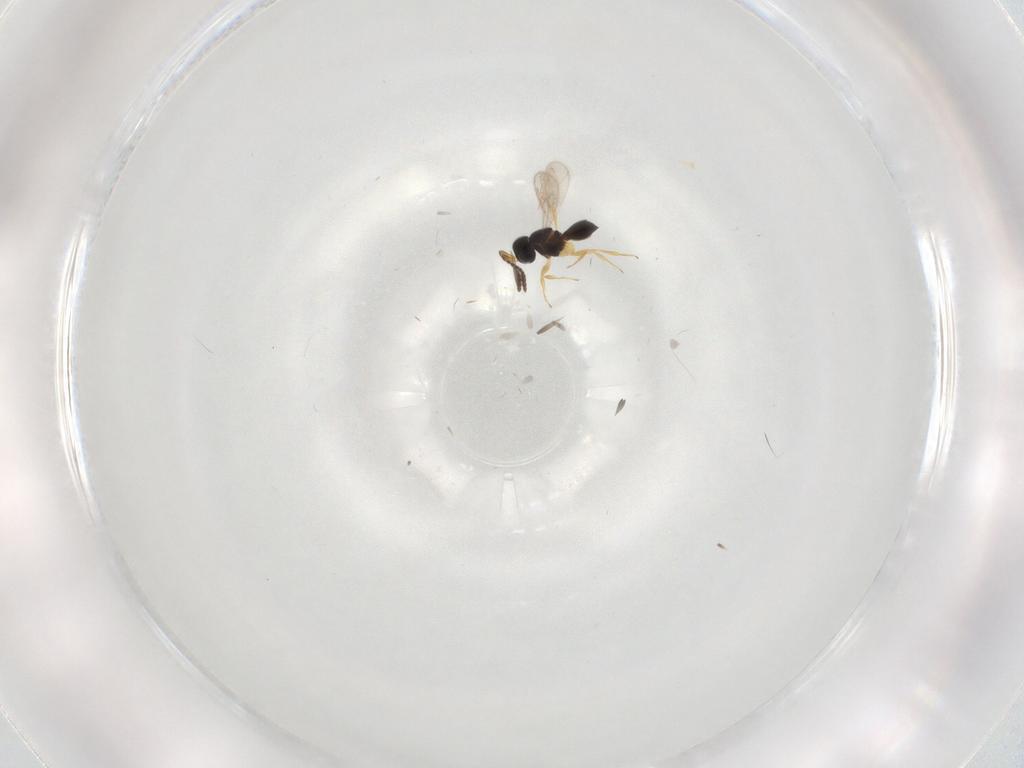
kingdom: Animalia
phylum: Arthropoda
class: Insecta
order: Hymenoptera
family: Scelionidae
